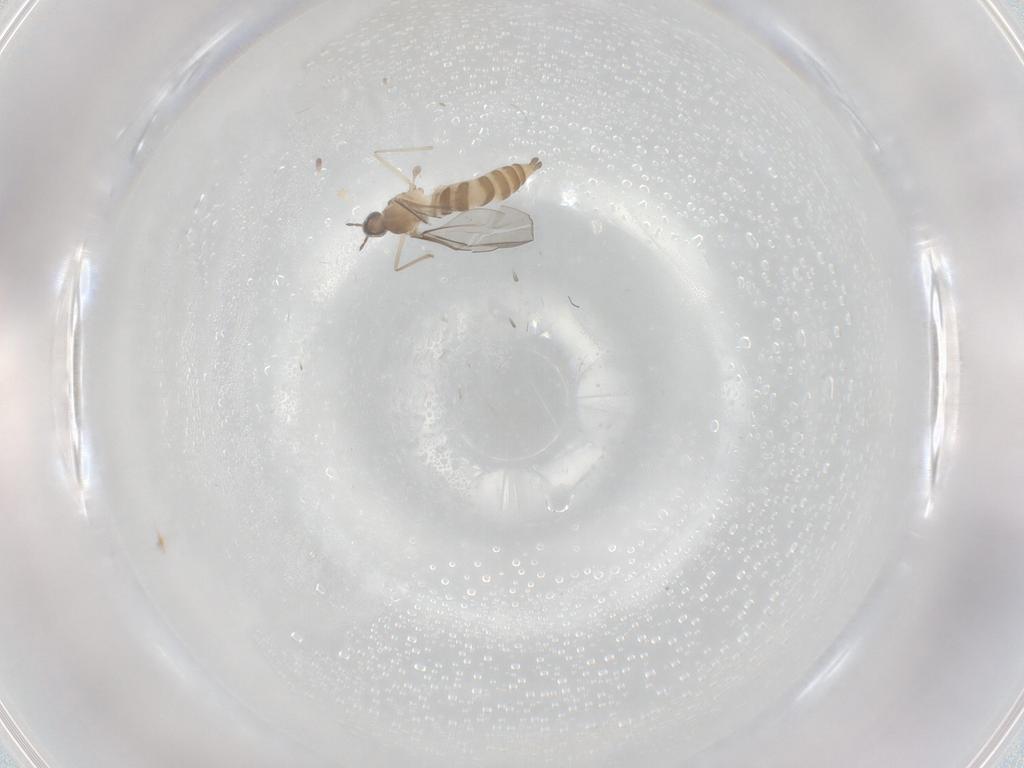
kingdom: Animalia
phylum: Arthropoda
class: Insecta
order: Diptera
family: Cecidomyiidae
